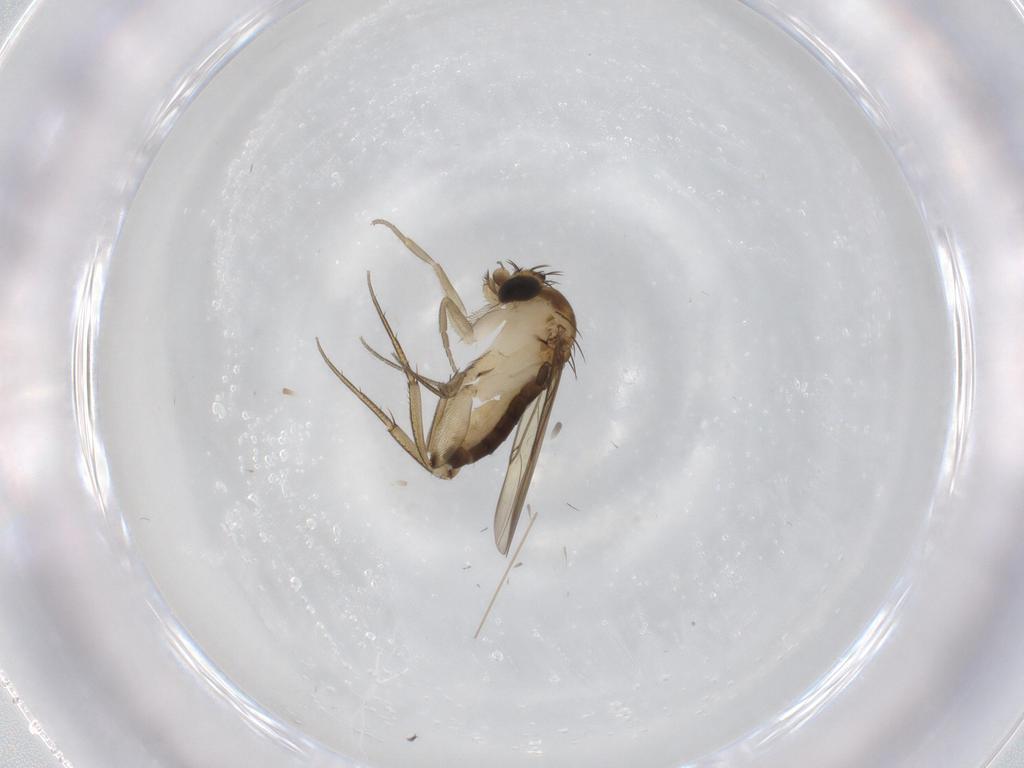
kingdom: Animalia
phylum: Arthropoda
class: Insecta
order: Diptera
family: Phoridae
